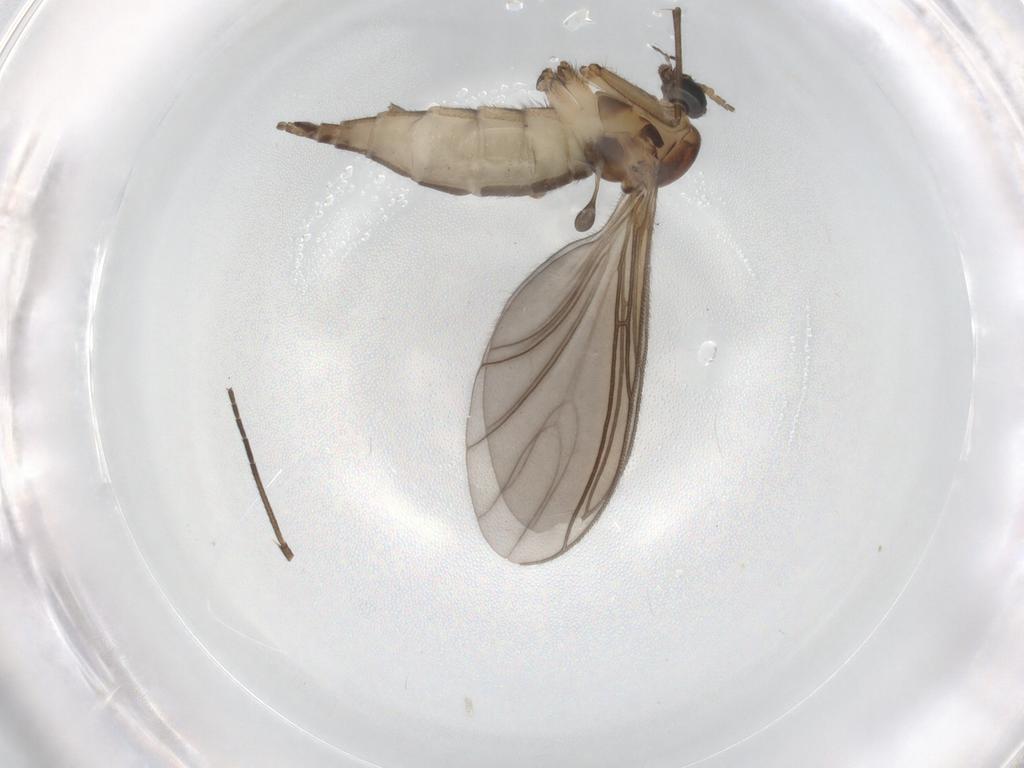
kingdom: Animalia
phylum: Arthropoda
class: Insecta
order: Diptera
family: Sciaridae
